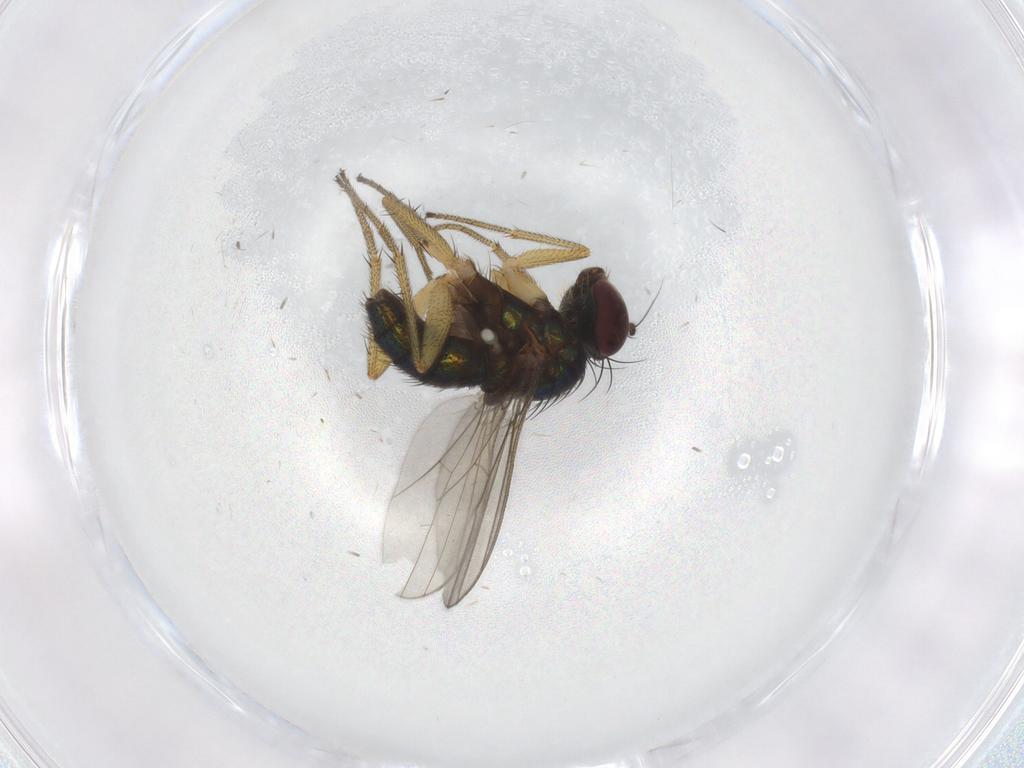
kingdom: Animalia
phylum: Arthropoda
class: Insecta
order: Diptera
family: Dolichopodidae
